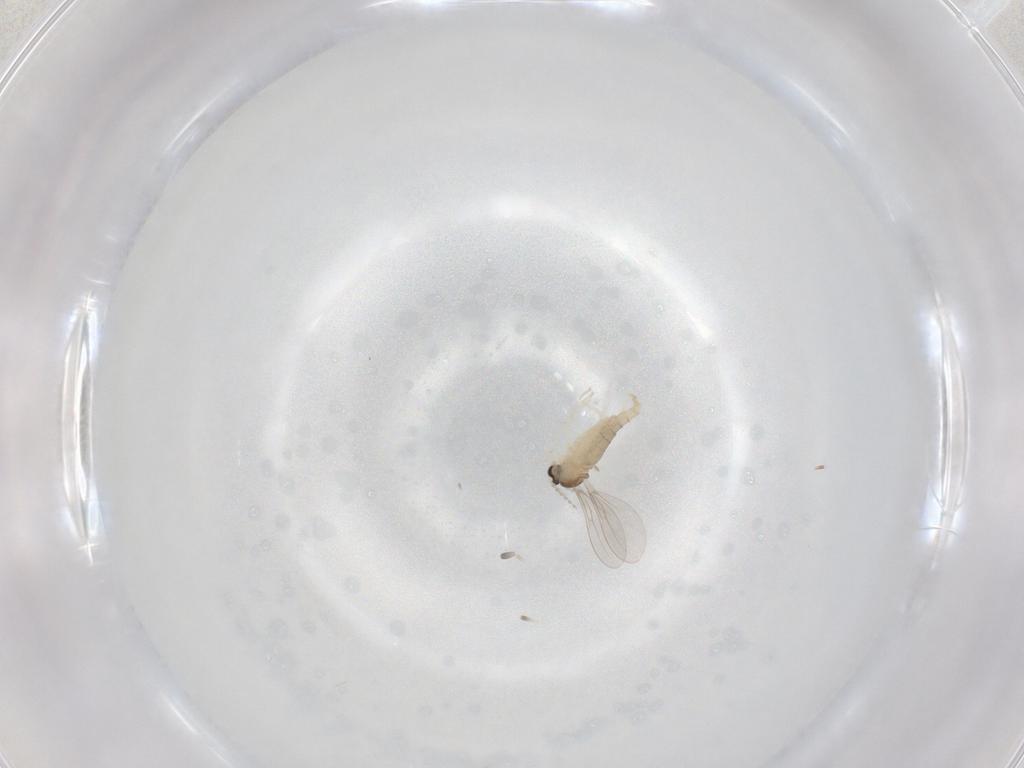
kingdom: Animalia
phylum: Arthropoda
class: Insecta
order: Diptera
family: Cecidomyiidae
